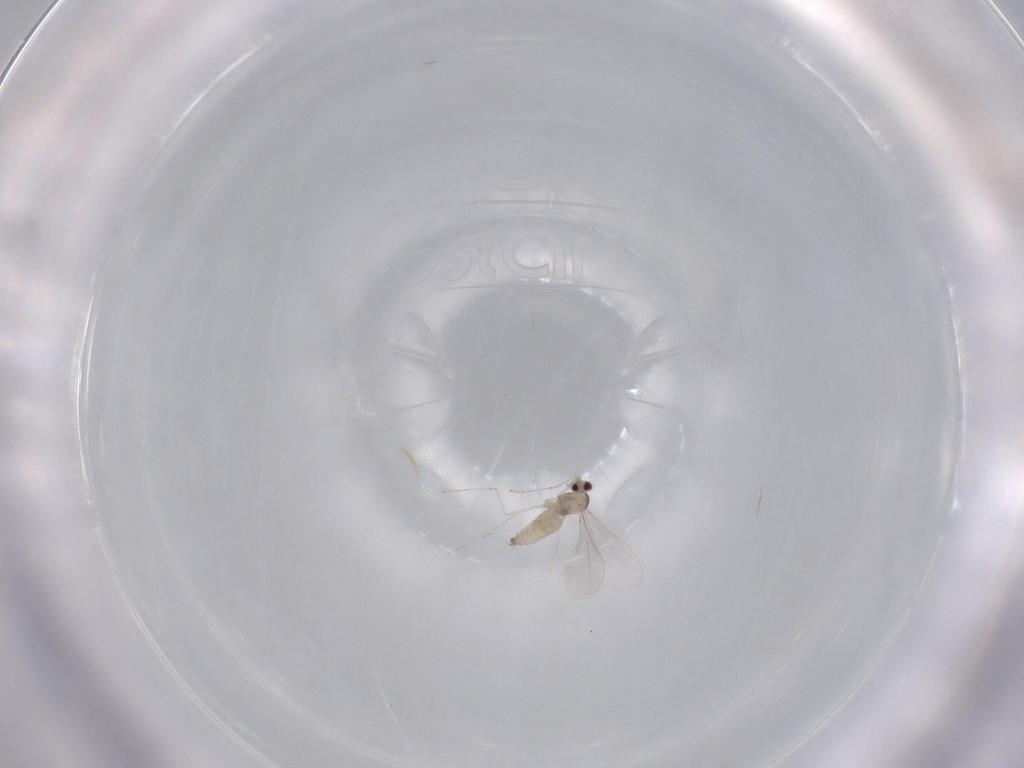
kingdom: Animalia
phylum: Arthropoda
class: Insecta
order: Diptera
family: Cecidomyiidae
